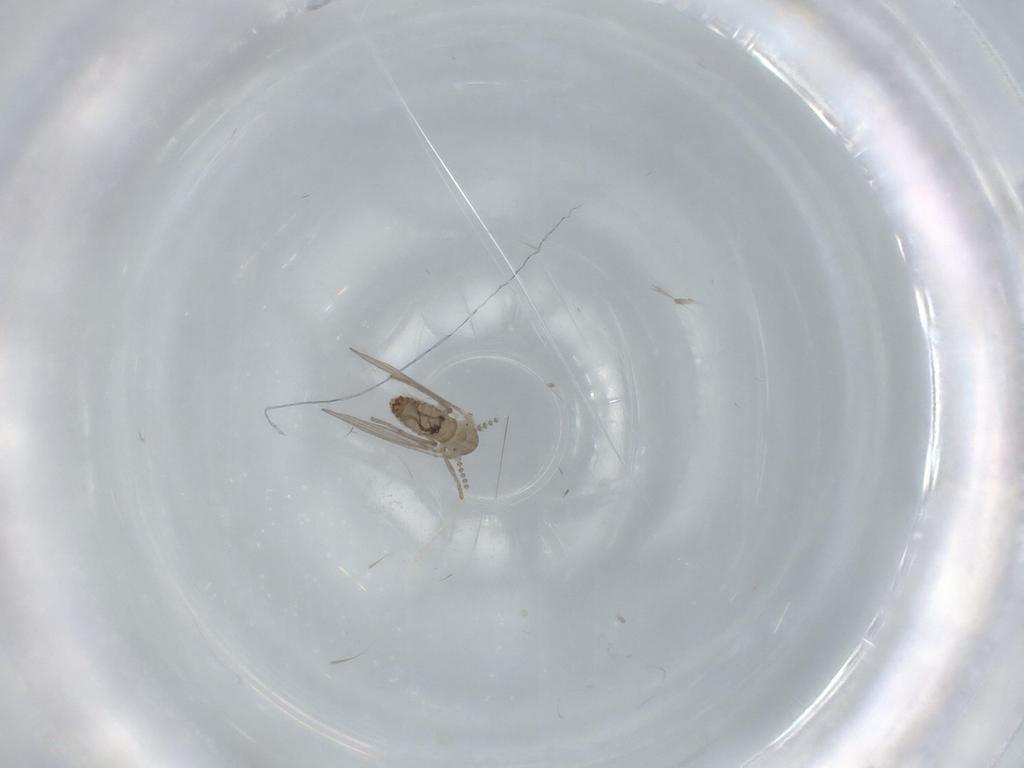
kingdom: Animalia
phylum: Arthropoda
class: Insecta
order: Diptera
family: Psychodidae
